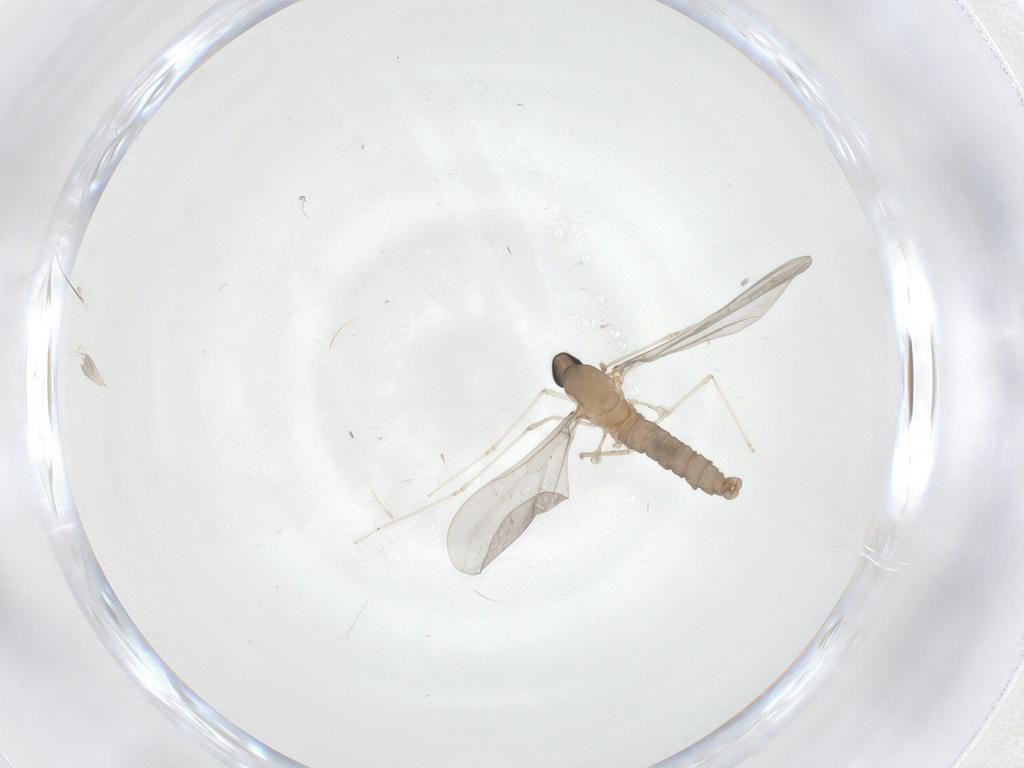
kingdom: Animalia
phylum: Arthropoda
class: Insecta
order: Diptera
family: Cecidomyiidae
